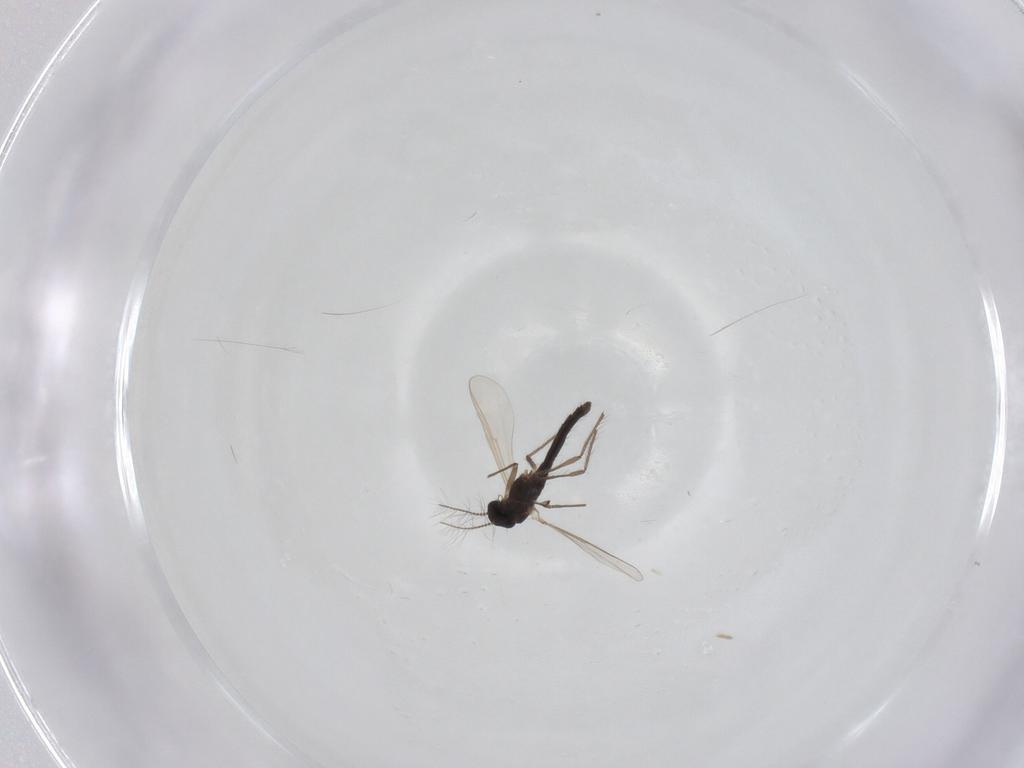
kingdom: Animalia
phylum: Arthropoda
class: Insecta
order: Diptera
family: Chironomidae
